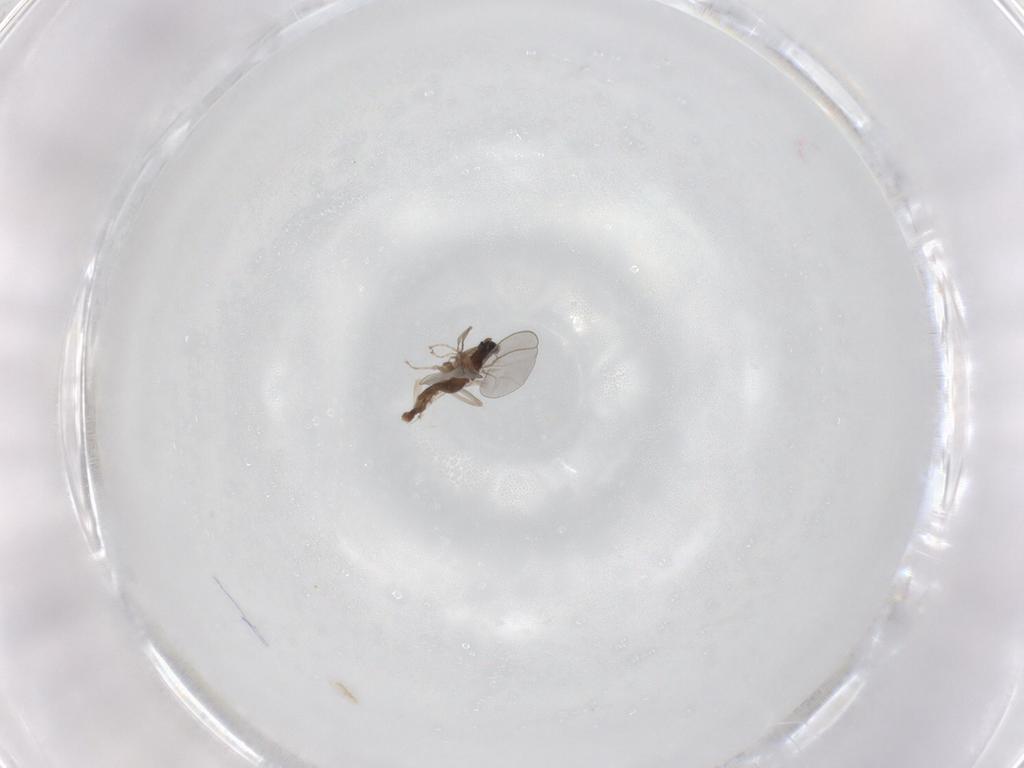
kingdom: Animalia
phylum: Arthropoda
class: Insecta
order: Diptera
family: Cecidomyiidae
